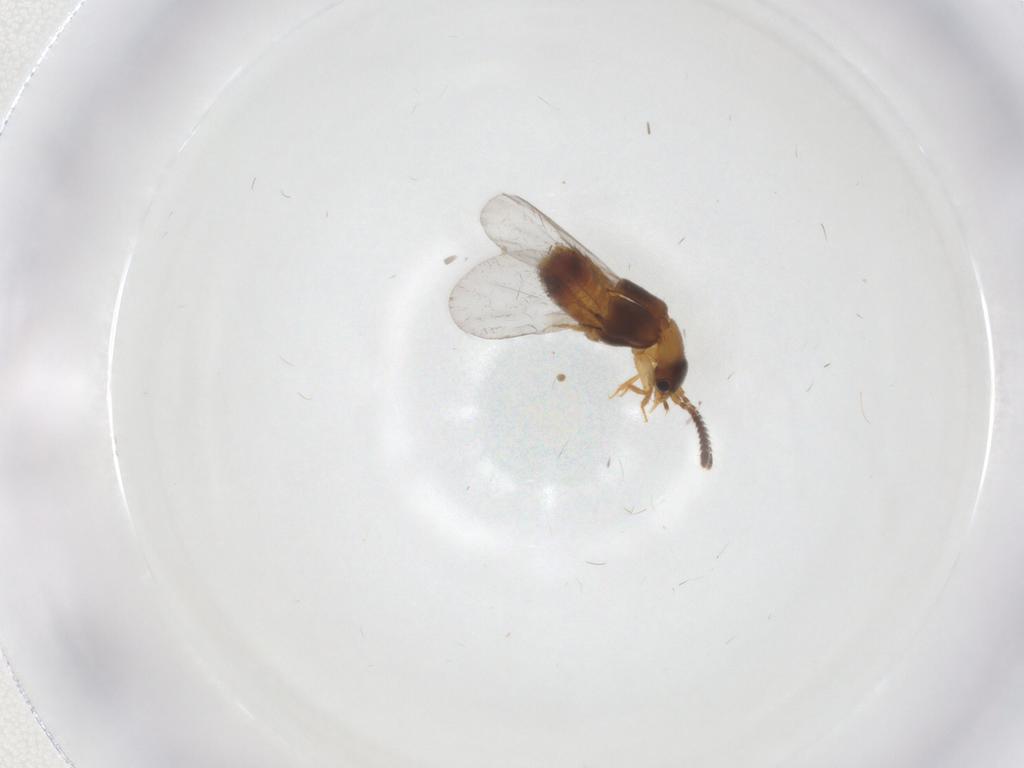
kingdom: Animalia
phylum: Arthropoda
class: Insecta
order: Coleoptera
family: Staphylinidae
